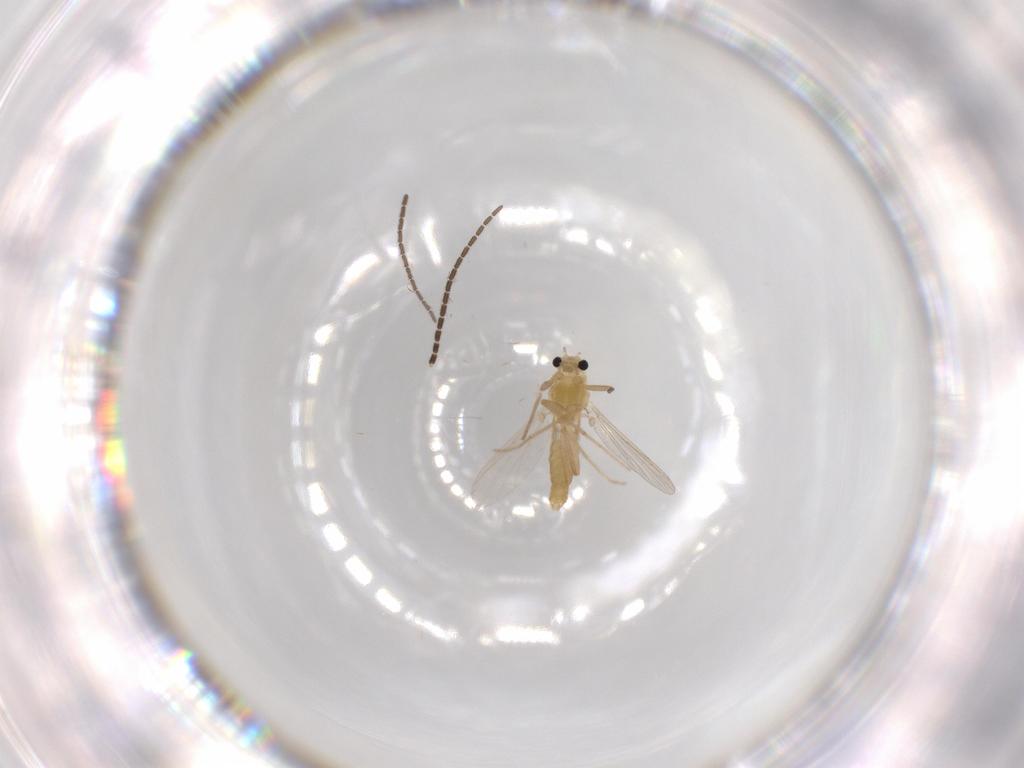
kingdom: Animalia
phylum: Arthropoda
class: Insecta
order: Diptera
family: Chironomidae
